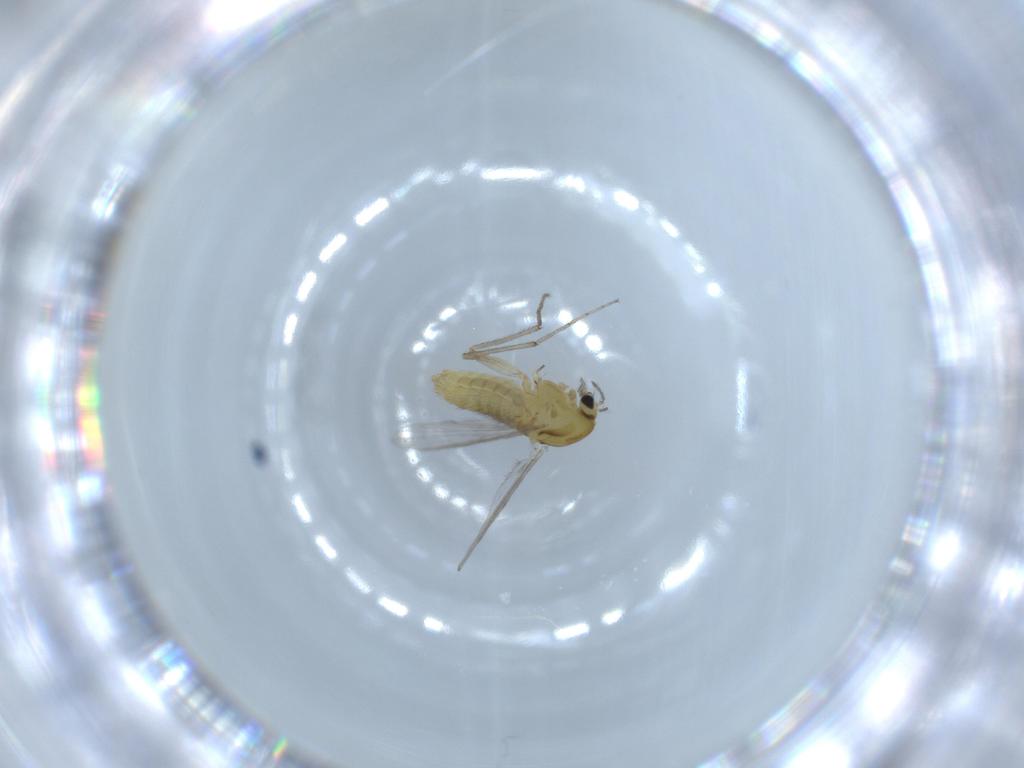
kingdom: Animalia
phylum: Arthropoda
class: Insecta
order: Diptera
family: Chironomidae
